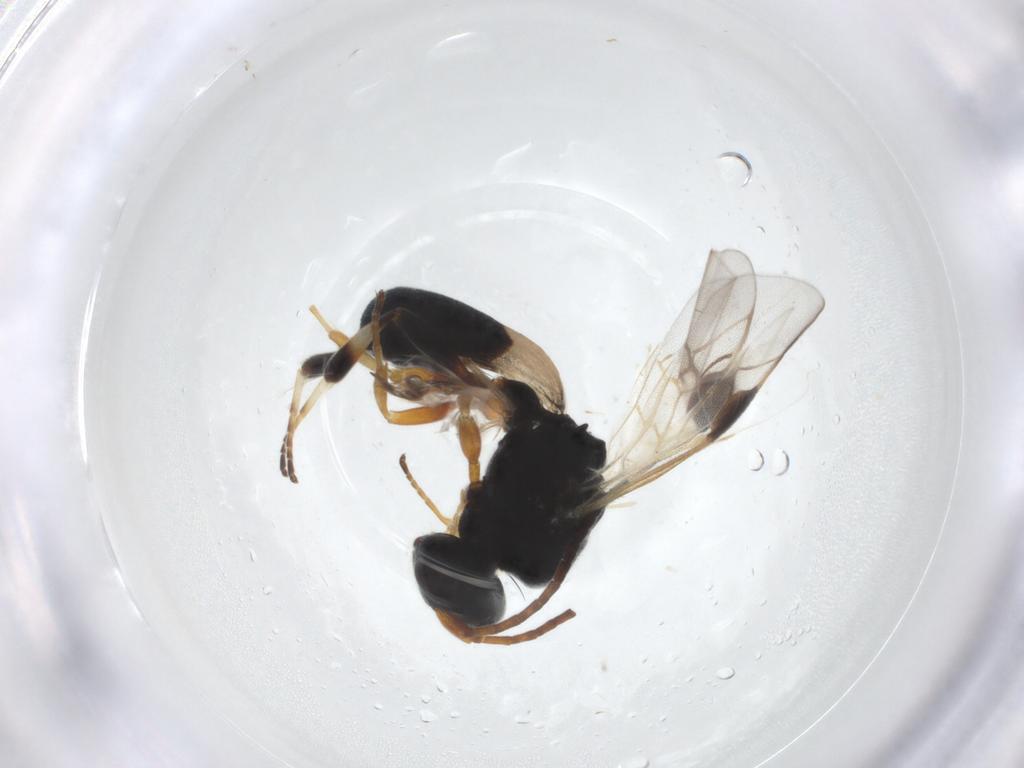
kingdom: Animalia
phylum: Arthropoda
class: Insecta
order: Hymenoptera
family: Braconidae
